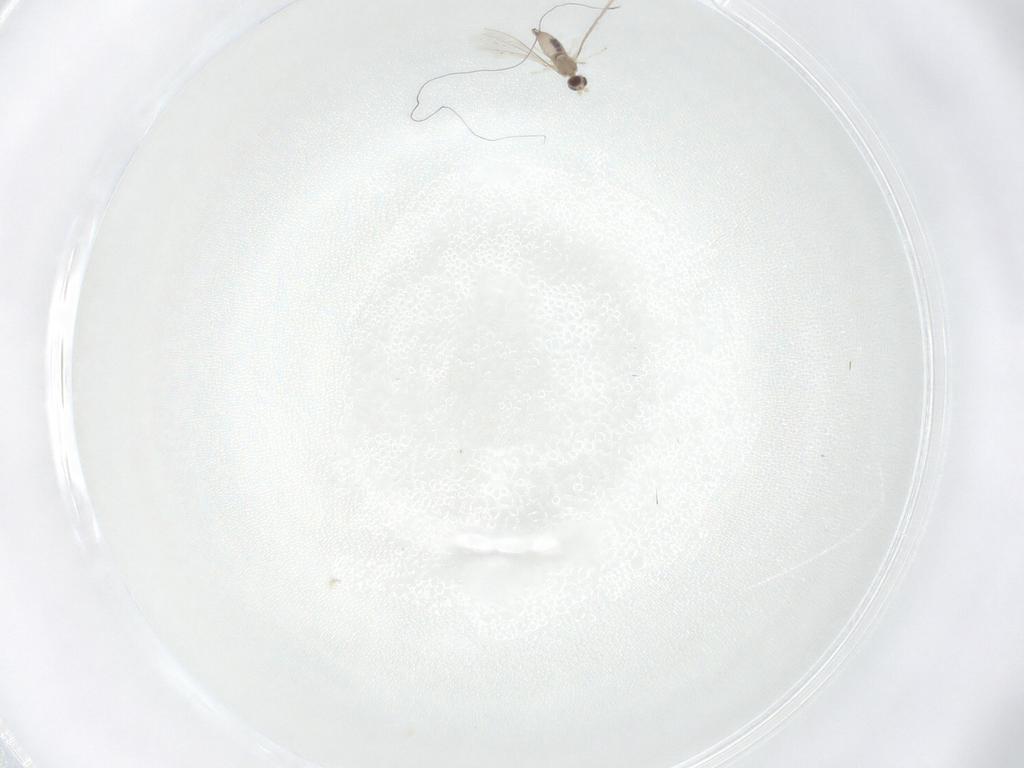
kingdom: Animalia
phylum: Arthropoda
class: Insecta
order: Diptera
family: Cecidomyiidae
